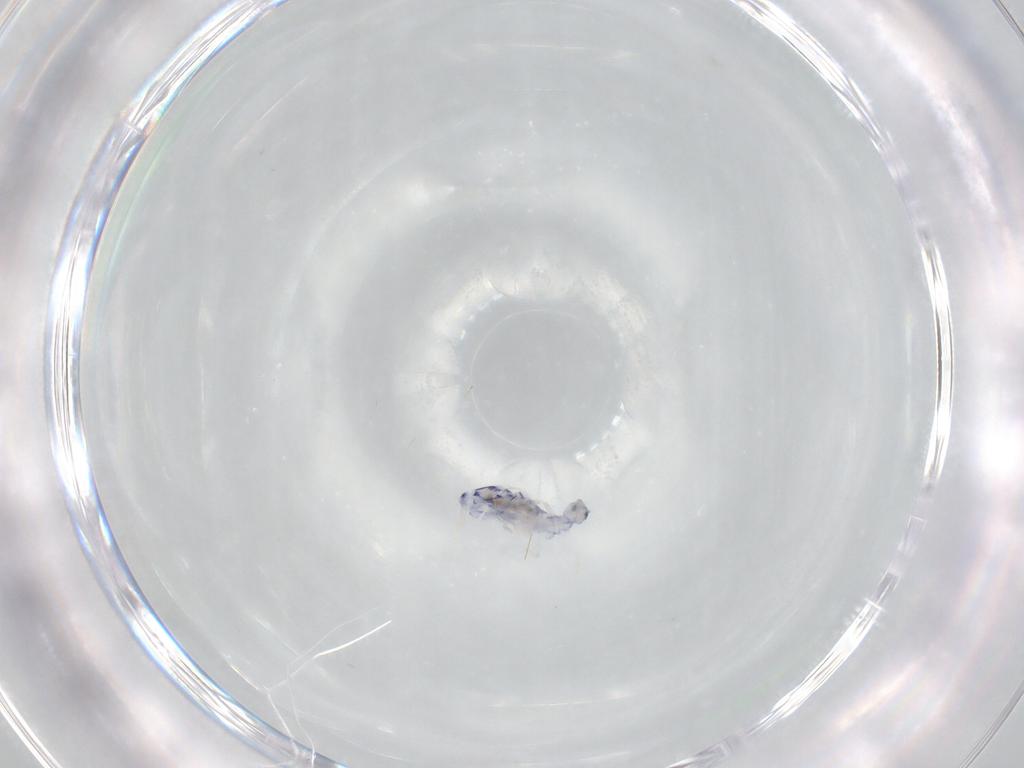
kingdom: Animalia
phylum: Arthropoda
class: Collembola
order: Entomobryomorpha
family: Entomobryidae
